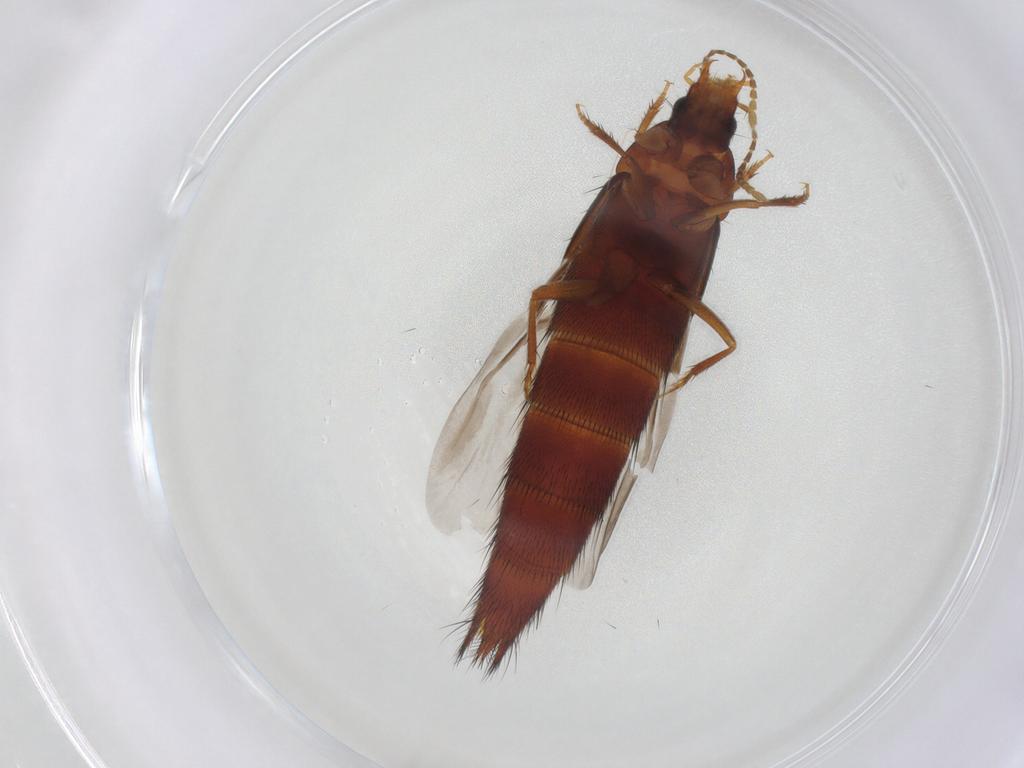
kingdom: Animalia
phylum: Arthropoda
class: Insecta
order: Coleoptera
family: Staphylinidae
